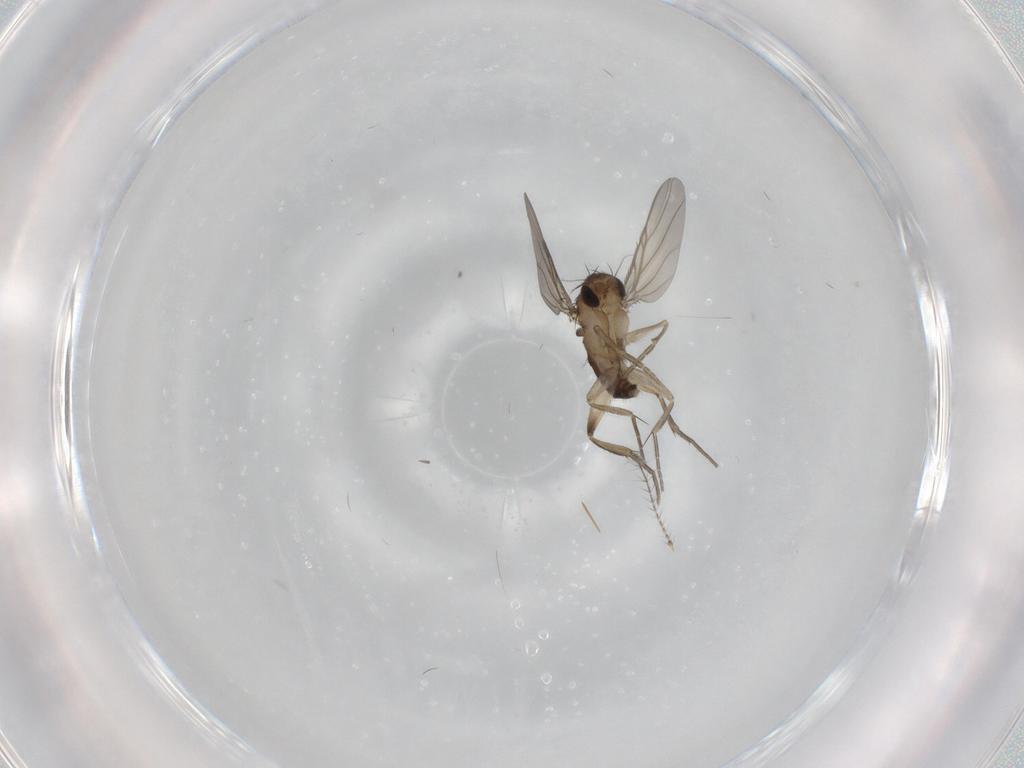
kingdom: Animalia
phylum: Arthropoda
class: Insecta
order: Diptera
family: Phoridae
